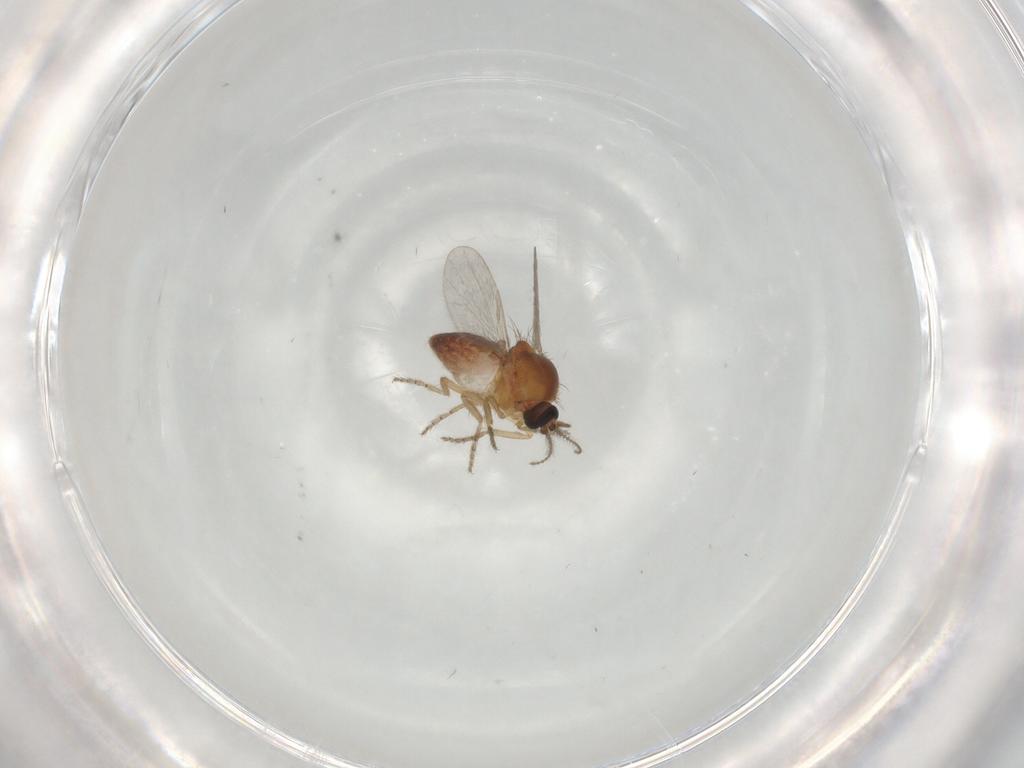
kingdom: Animalia
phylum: Arthropoda
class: Insecta
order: Diptera
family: Ceratopogonidae
